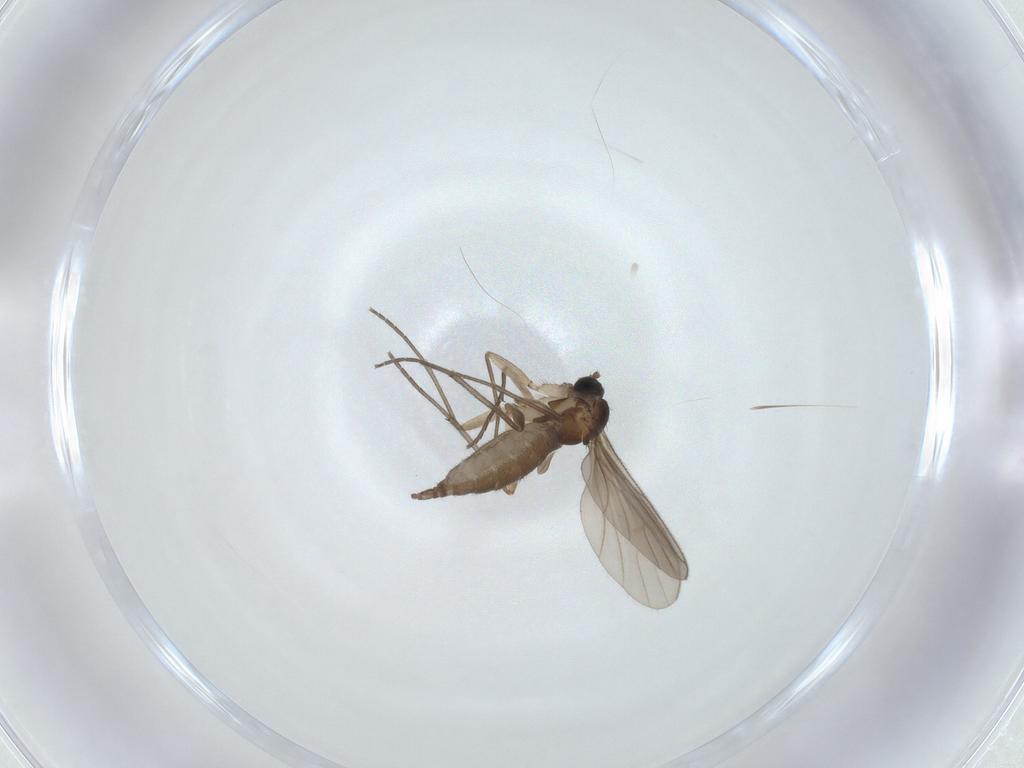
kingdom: Animalia
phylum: Arthropoda
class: Insecta
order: Diptera
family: Sciaridae
